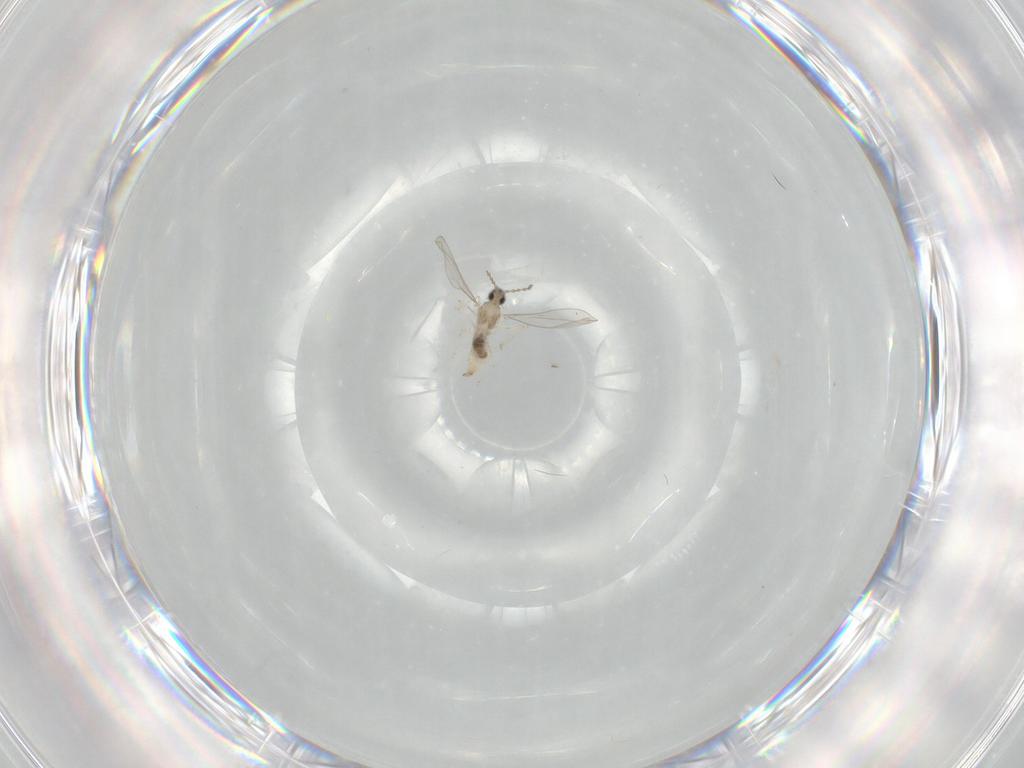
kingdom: Animalia
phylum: Arthropoda
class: Insecta
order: Diptera
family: Cecidomyiidae
